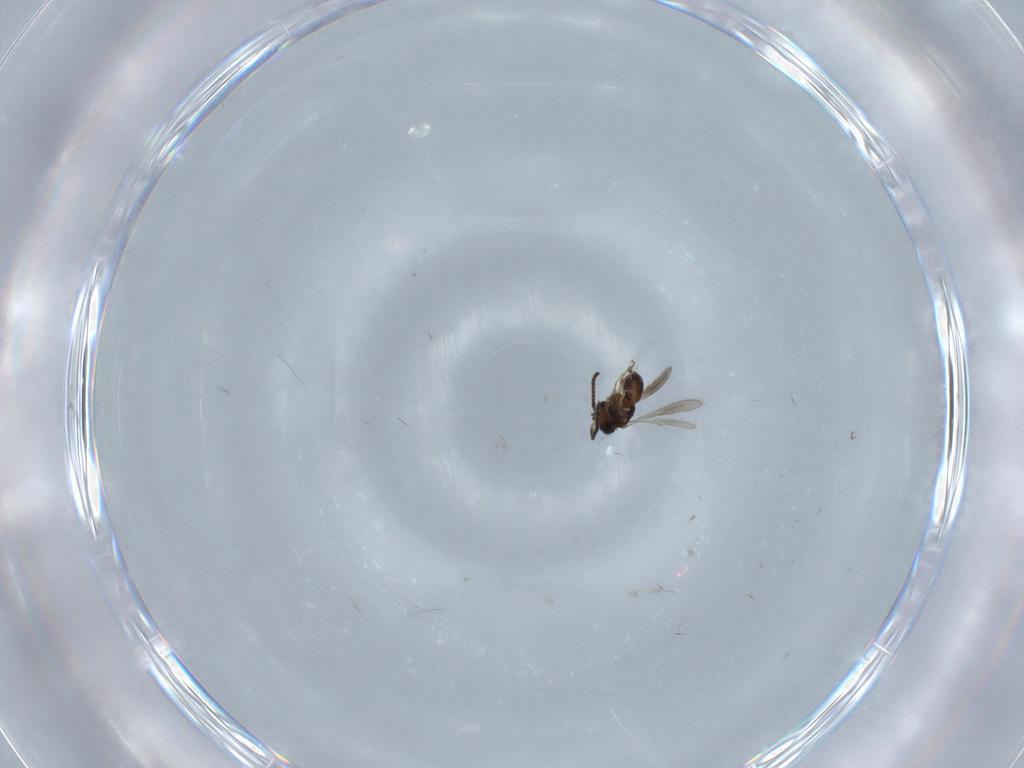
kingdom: Animalia
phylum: Arthropoda
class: Insecta
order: Hymenoptera
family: Scelionidae
